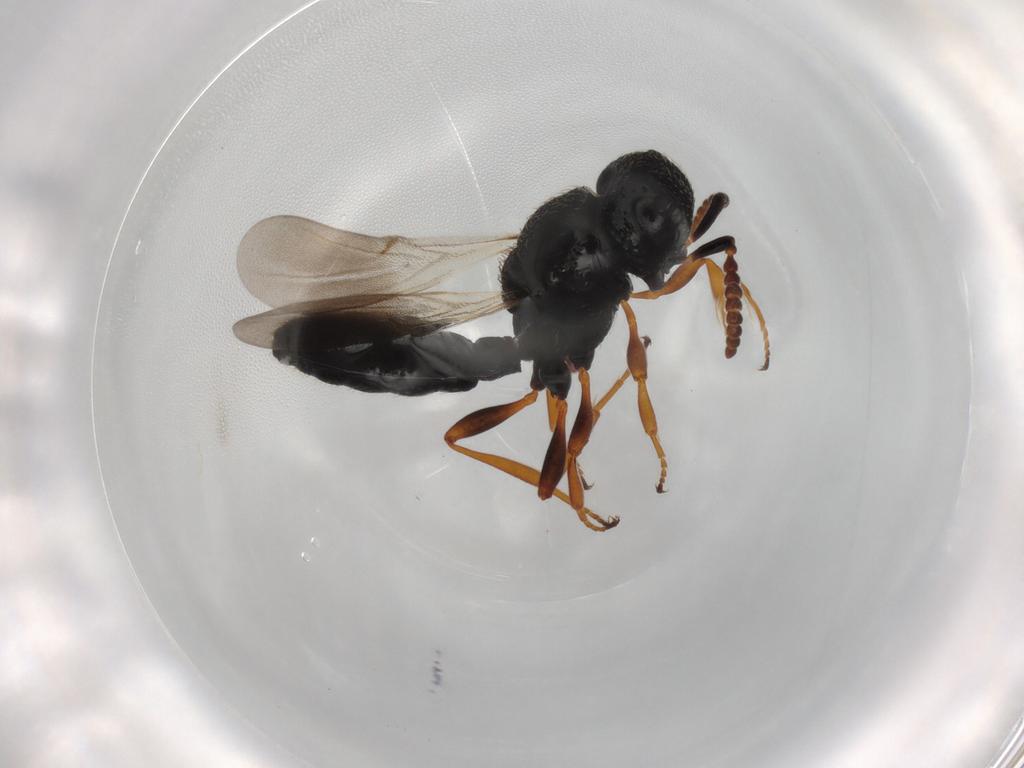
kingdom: Animalia
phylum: Arthropoda
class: Insecta
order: Hymenoptera
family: Scelionidae
